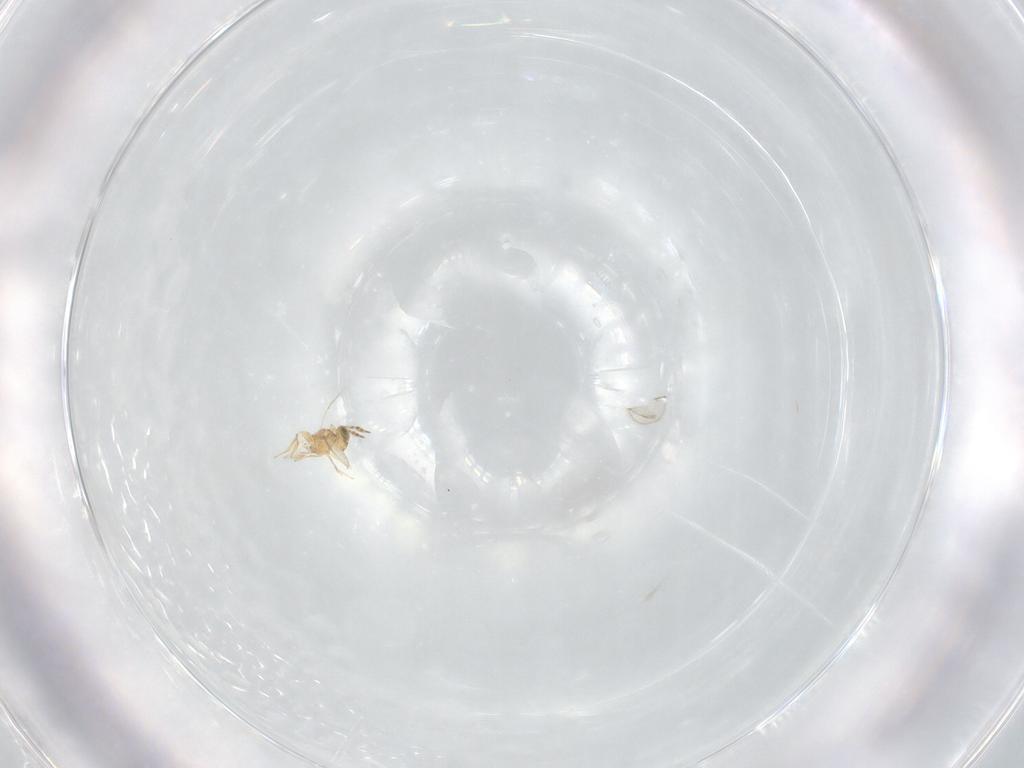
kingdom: Animalia
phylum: Arthropoda
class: Insecta
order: Hymenoptera
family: Trichogrammatidae
